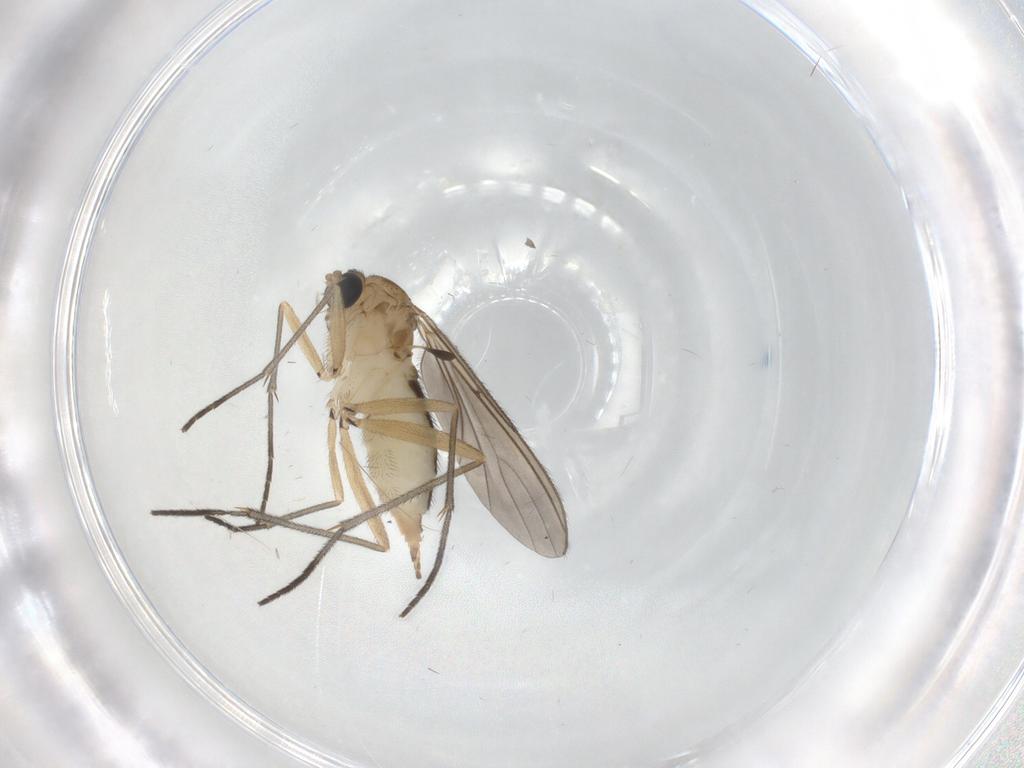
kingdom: Animalia
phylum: Arthropoda
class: Insecta
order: Diptera
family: Sciaridae
